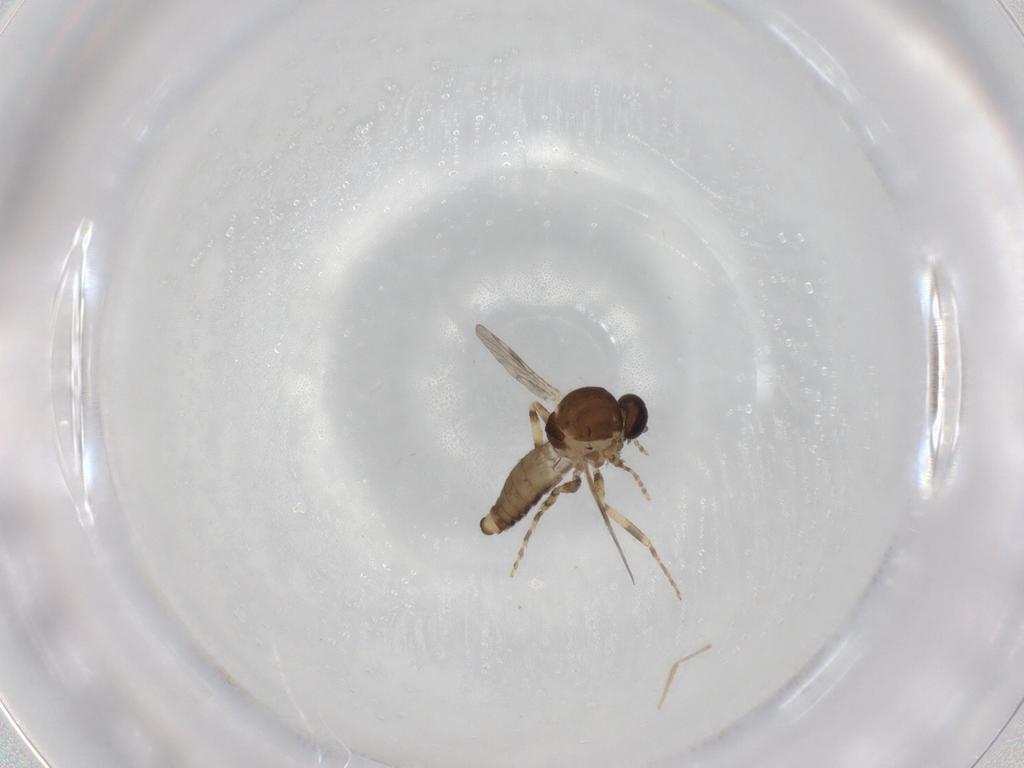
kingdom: Animalia
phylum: Arthropoda
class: Insecta
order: Diptera
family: Ceratopogonidae
